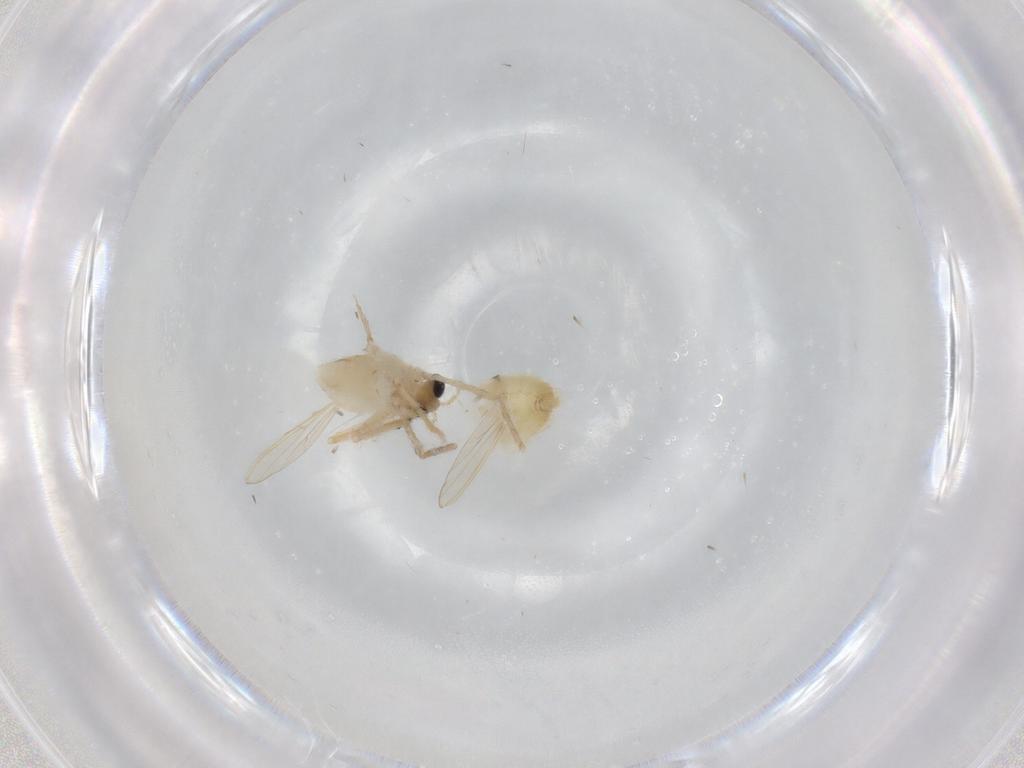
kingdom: Animalia
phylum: Arthropoda
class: Insecta
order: Diptera
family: Chironomidae
